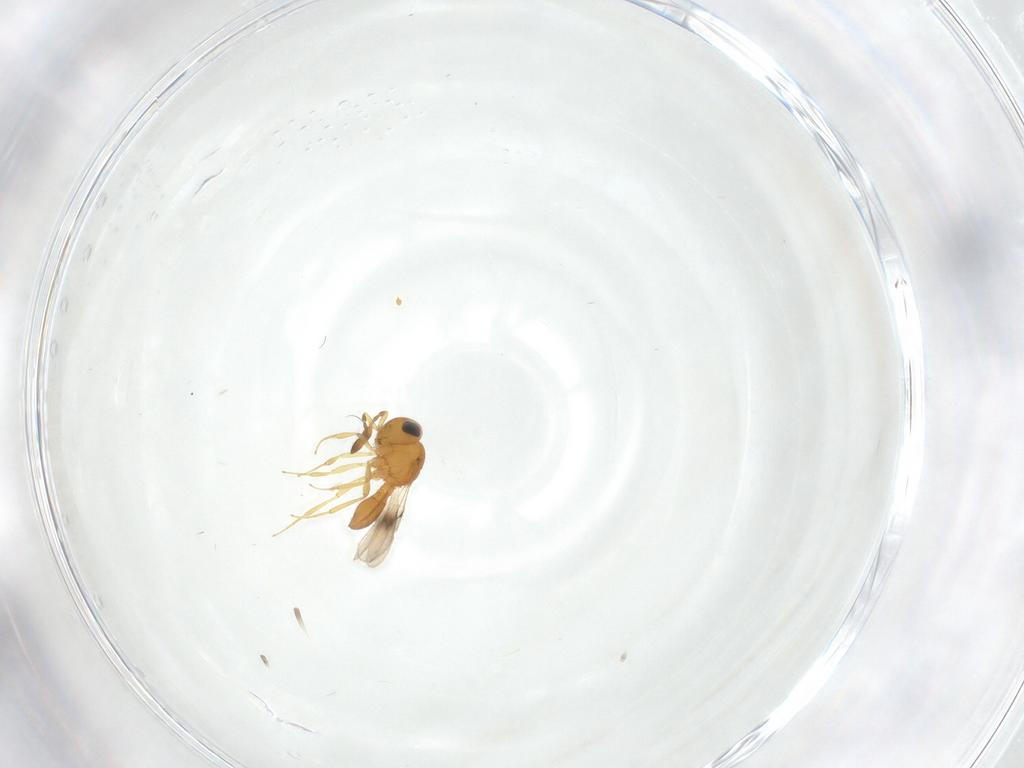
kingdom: Animalia
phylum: Arthropoda
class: Insecta
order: Hymenoptera
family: Scelionidae
